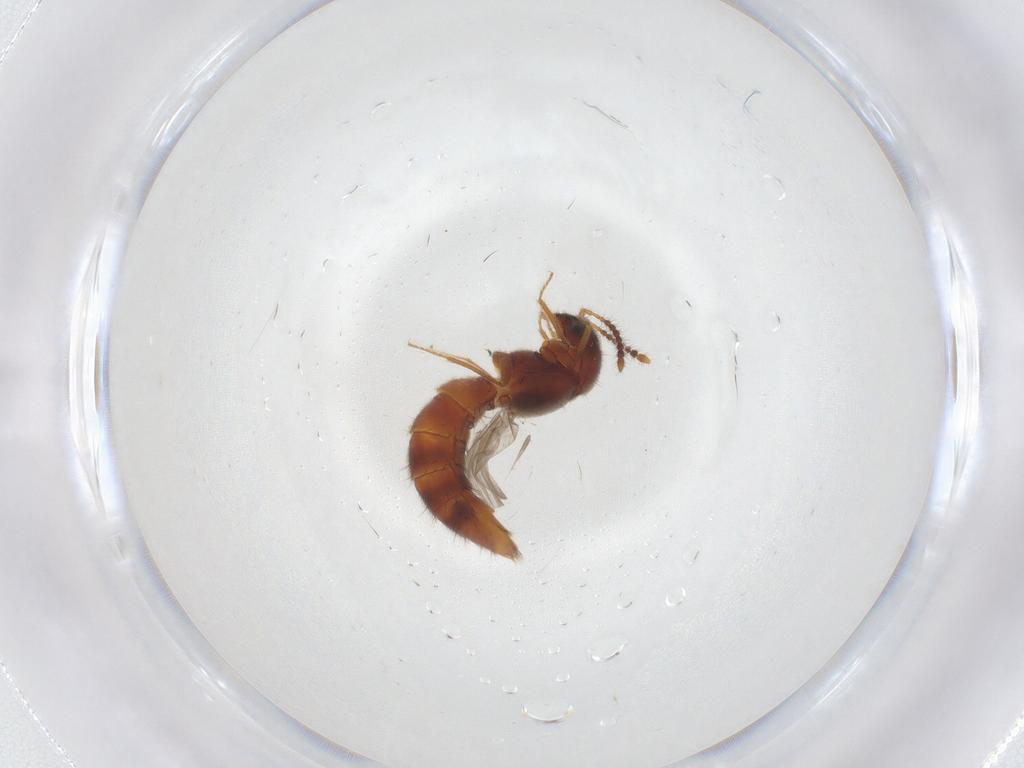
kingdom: Animalia
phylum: Arthropoda
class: Insecta
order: Coleoptera
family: Staphylinidae
